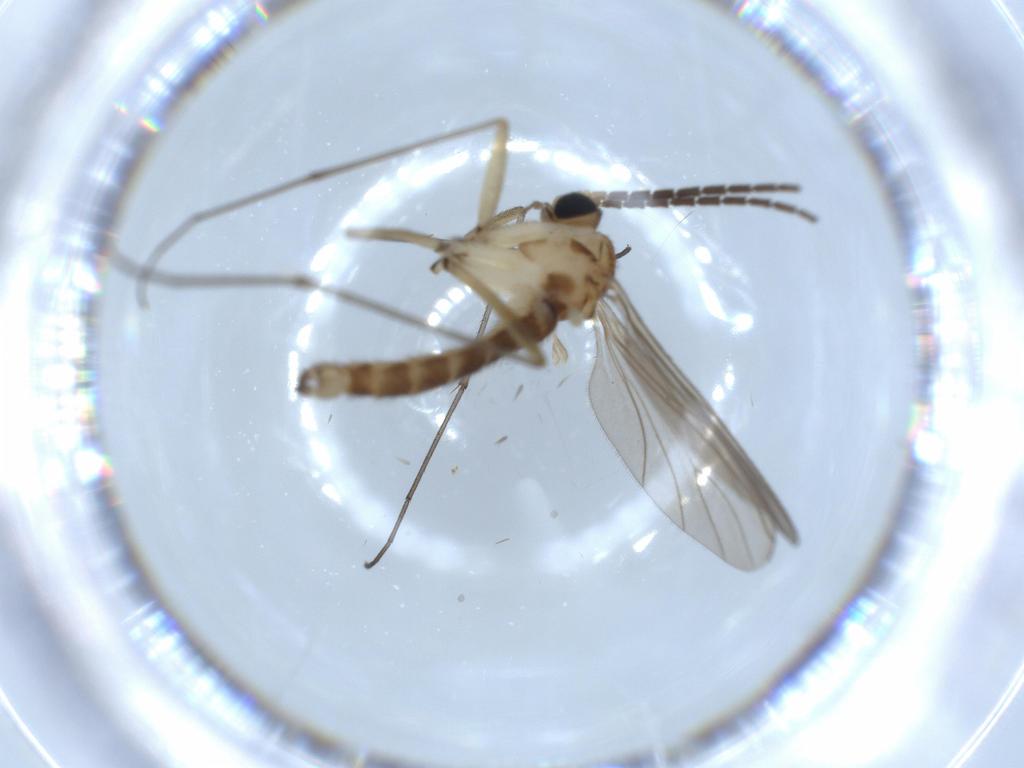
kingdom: Animalia
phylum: Arthropoda
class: Insecta
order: Diptera
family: Sciaridae
